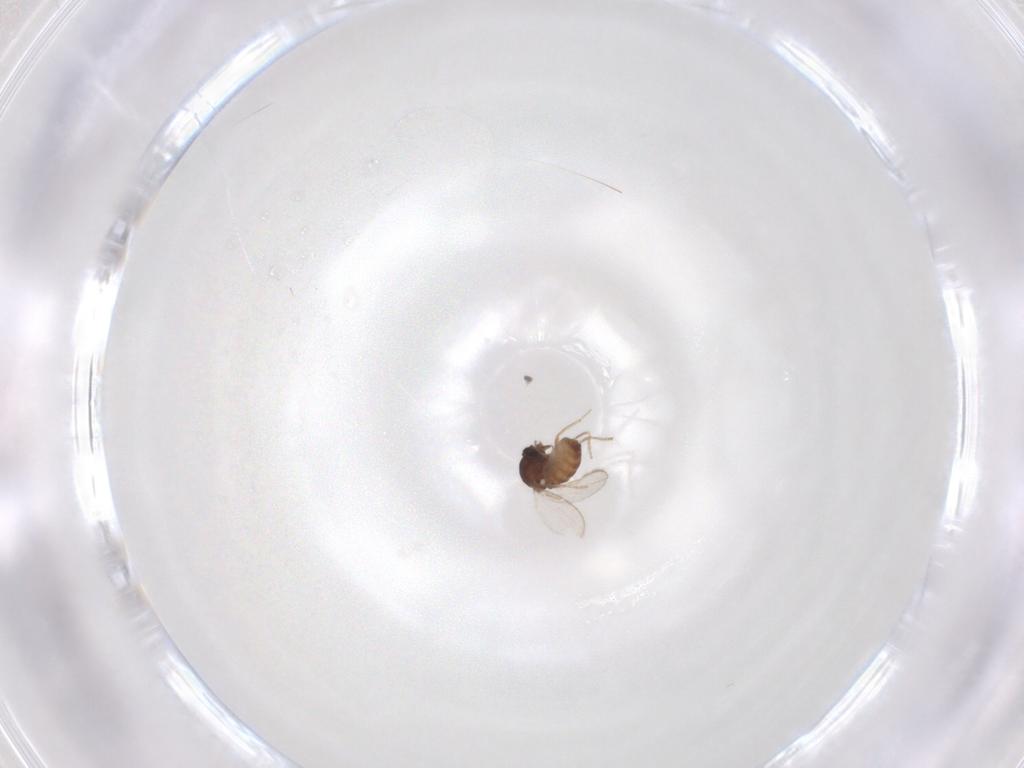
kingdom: Animalia
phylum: Arthropoda
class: Insecta
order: Diptera
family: Ceratopogonidae
